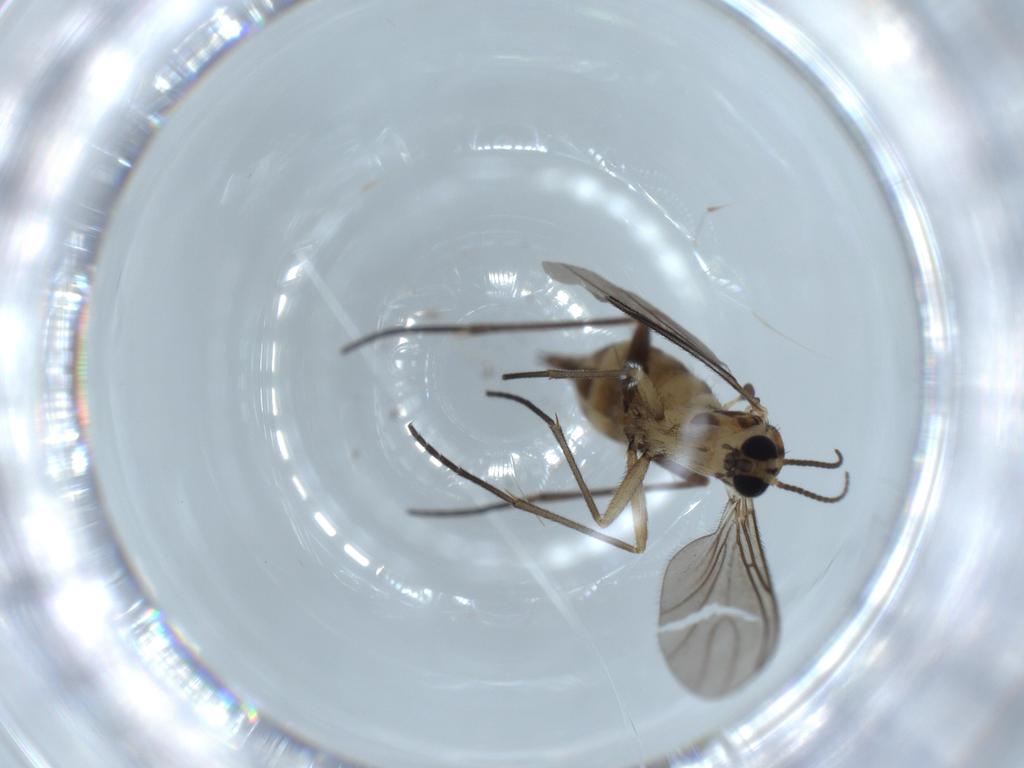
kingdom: Animalia
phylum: Arthropoda
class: Insecta
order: Diptera
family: Sciaridae
